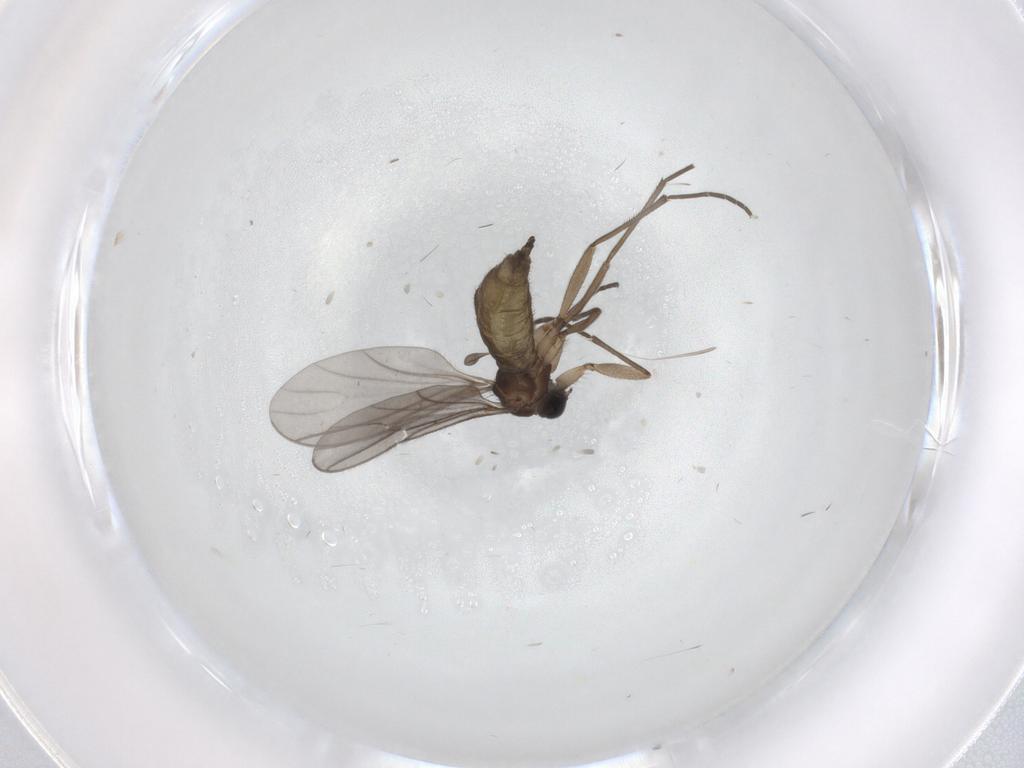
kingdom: Animalia
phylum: Arthropoda
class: Insecta
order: Diptera
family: Sciaridae
